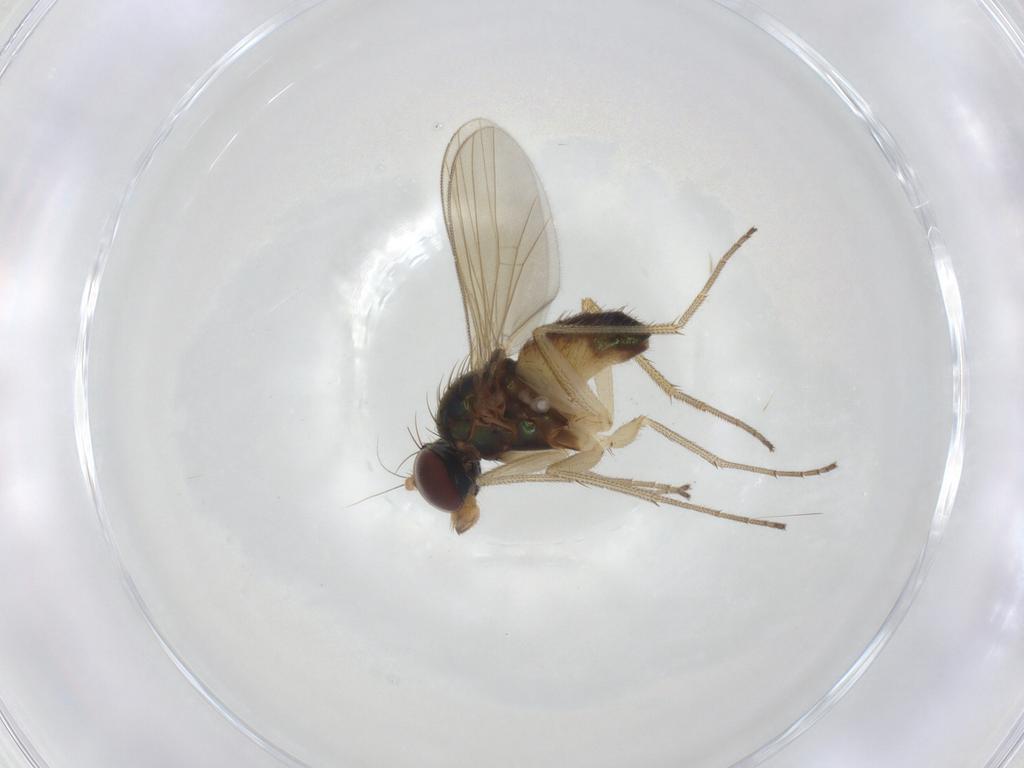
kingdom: Animalia
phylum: Arthropoda
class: Insecta
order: Diptera
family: Dolichopodidae
